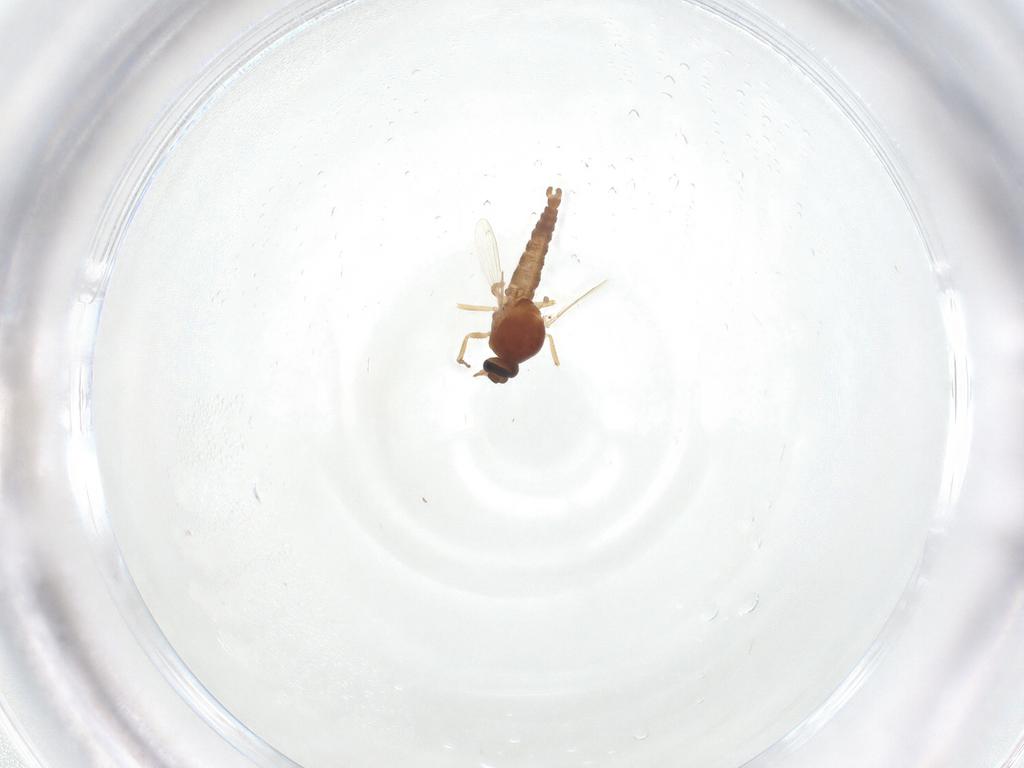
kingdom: Animalia
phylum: Arthropoda
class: Insecta
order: Diptera
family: Ceratopogonidae
